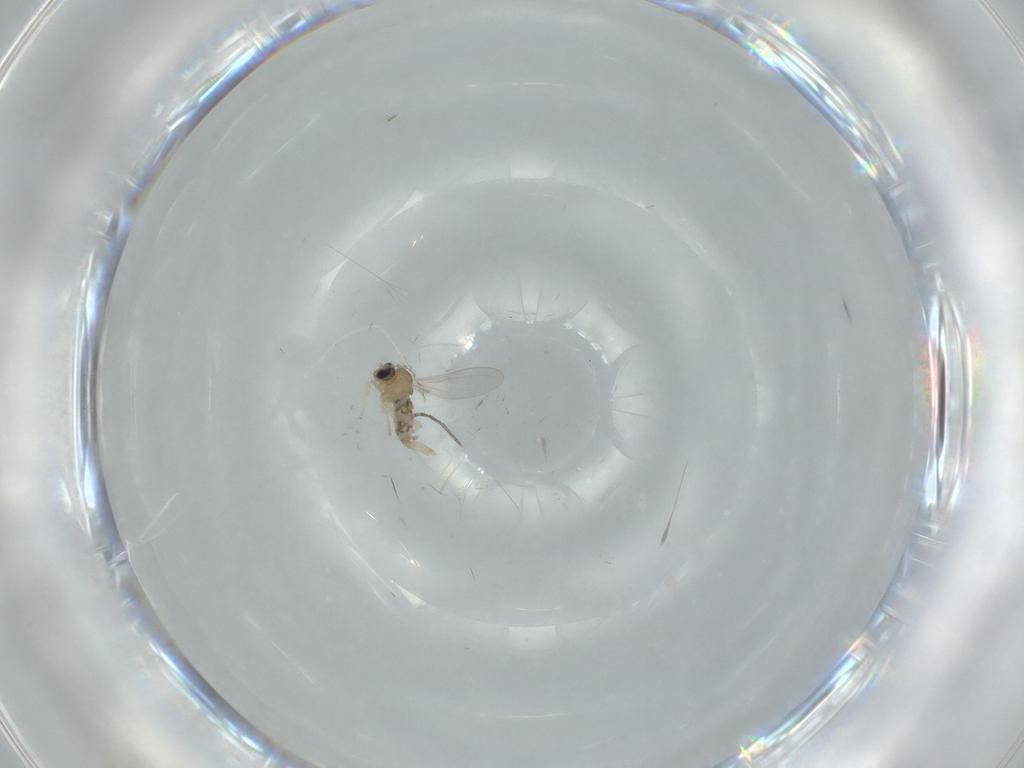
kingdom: Animalia
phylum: Arthropoda
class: Insecta
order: Diptera
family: Cecidomyiidae
